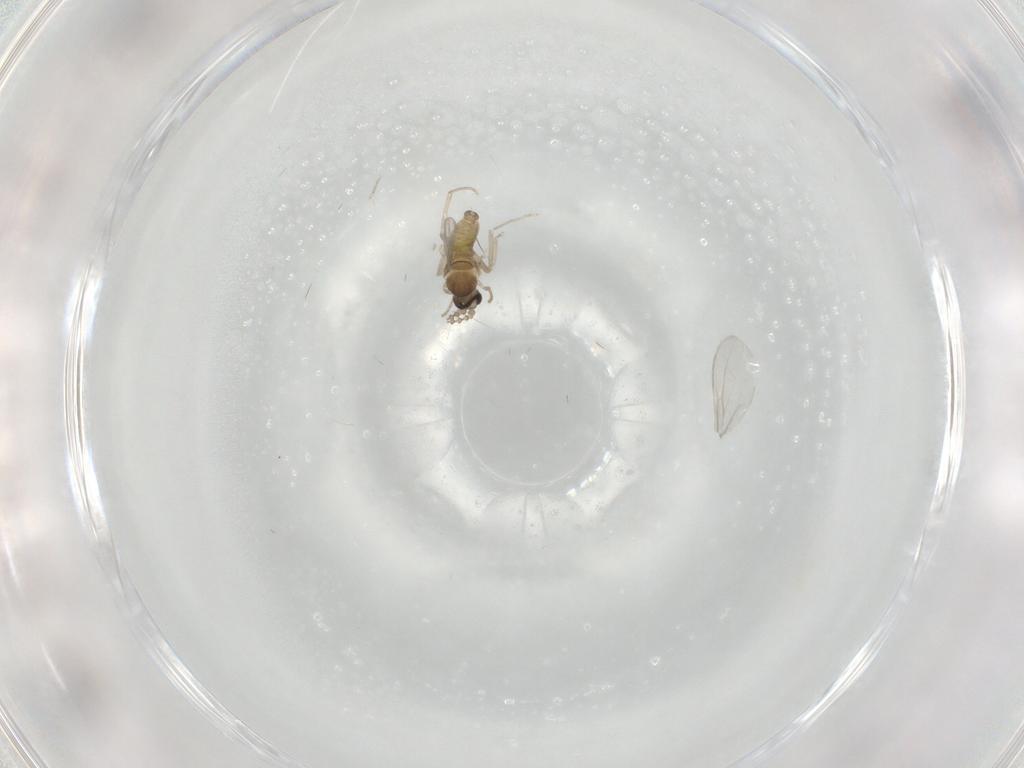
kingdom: Animalia
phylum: Arthropoda
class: Insecta
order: Diptera
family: Cecidomyiidae
